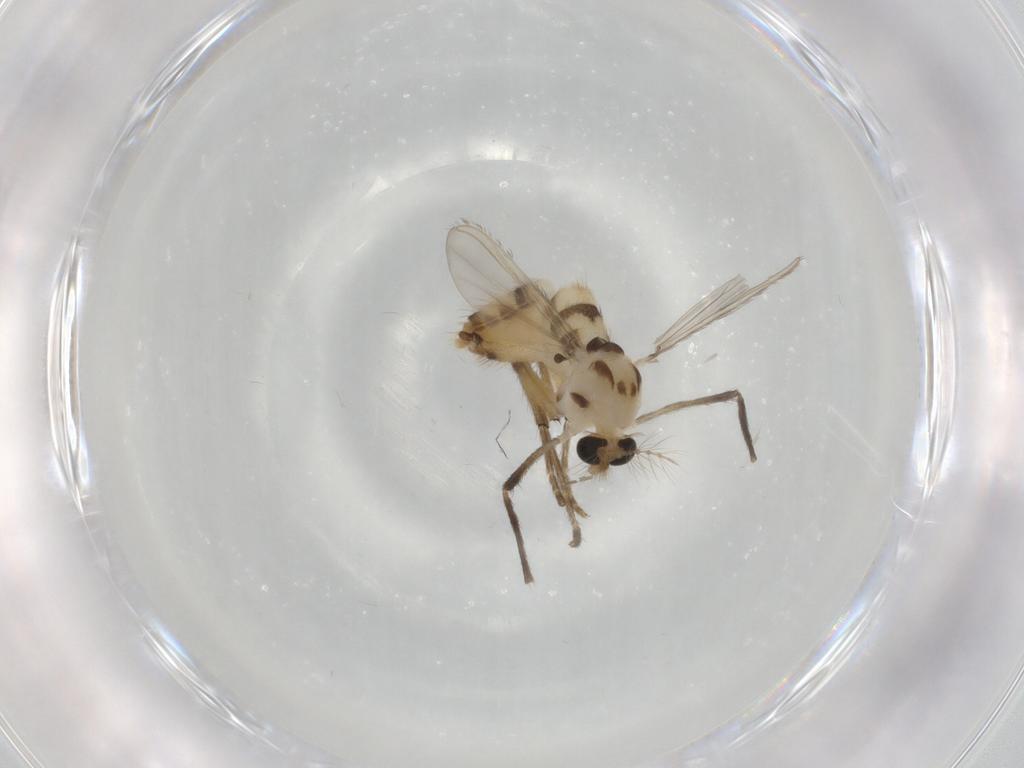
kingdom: Animalia
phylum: Arthropoda
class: Insecta
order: Diptera
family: Chironomidae
